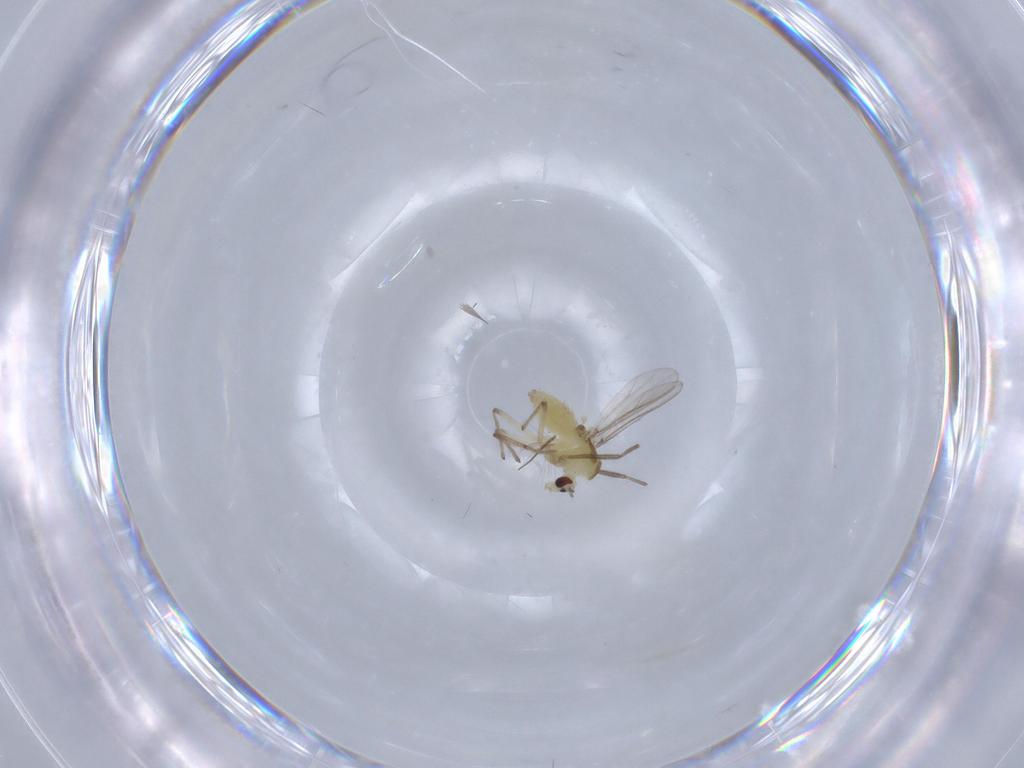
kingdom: Animalia
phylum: Arthropoda
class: Insecta
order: Diptera
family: Chironomidae
